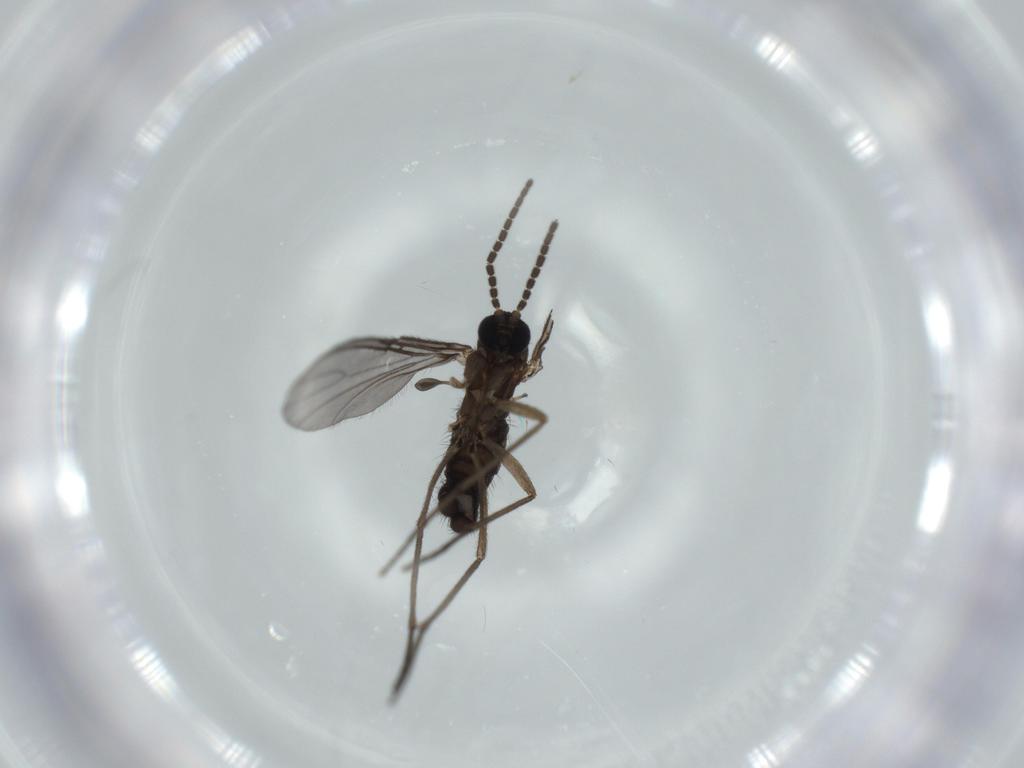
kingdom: Animalia
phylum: Arthropoda
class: Insecta
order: Diptera
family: Sciaridae
